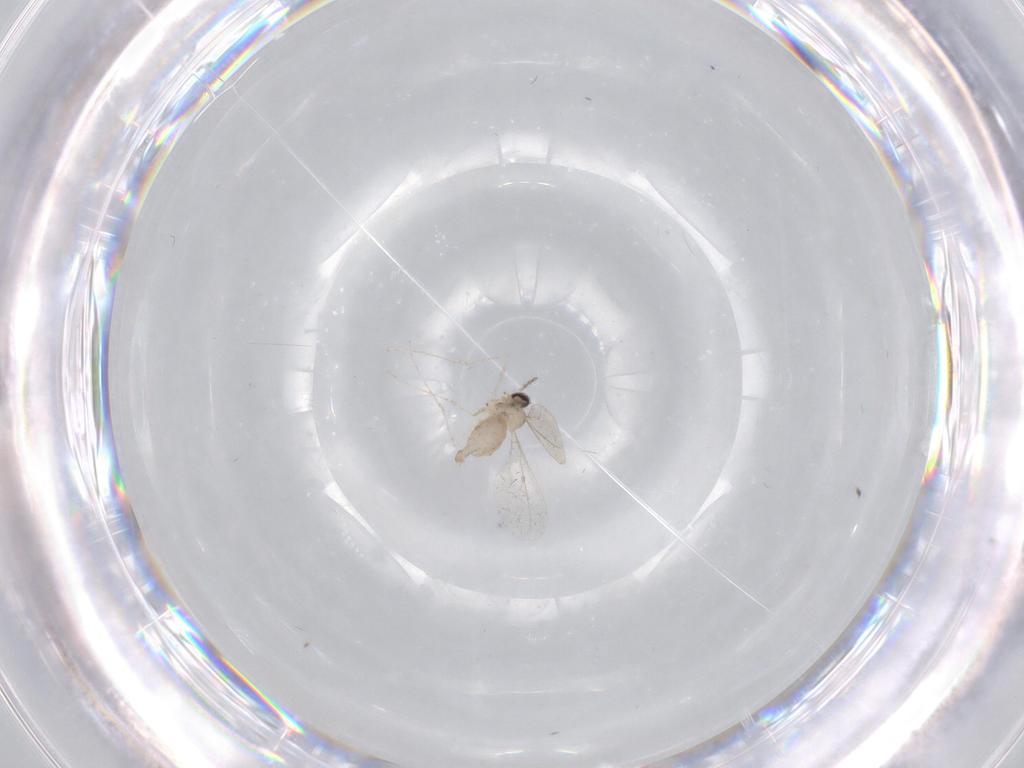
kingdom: Animalia
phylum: Arthropoda
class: Insecta
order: Diptera
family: Cecidomyiidae
